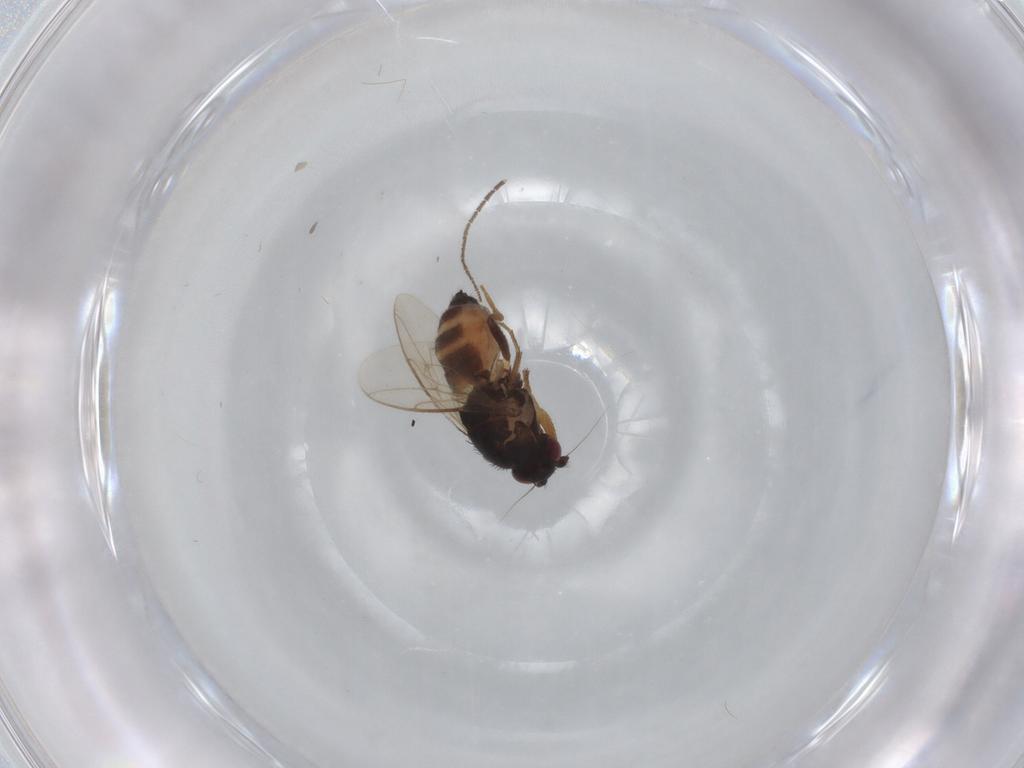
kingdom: Animalia
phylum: Arthropoda
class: Insecta
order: Diptera
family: Sphaeroceridae
